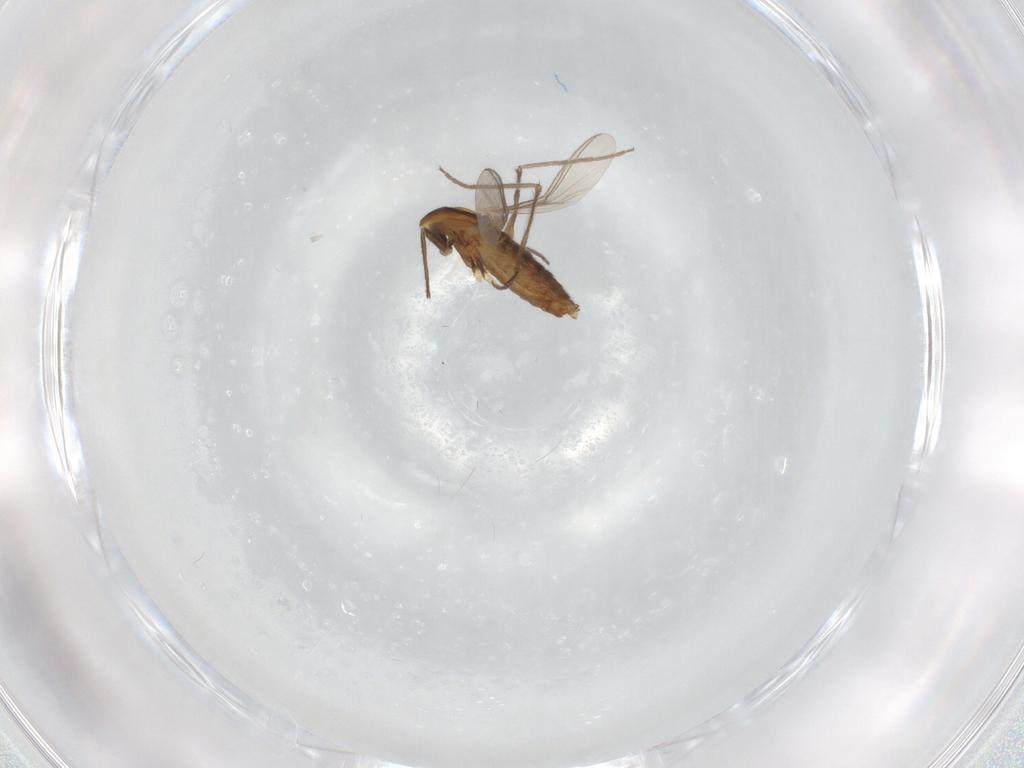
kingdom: Animalia
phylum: Arthropoda
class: Insecta
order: Diptera
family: Chironomidae
